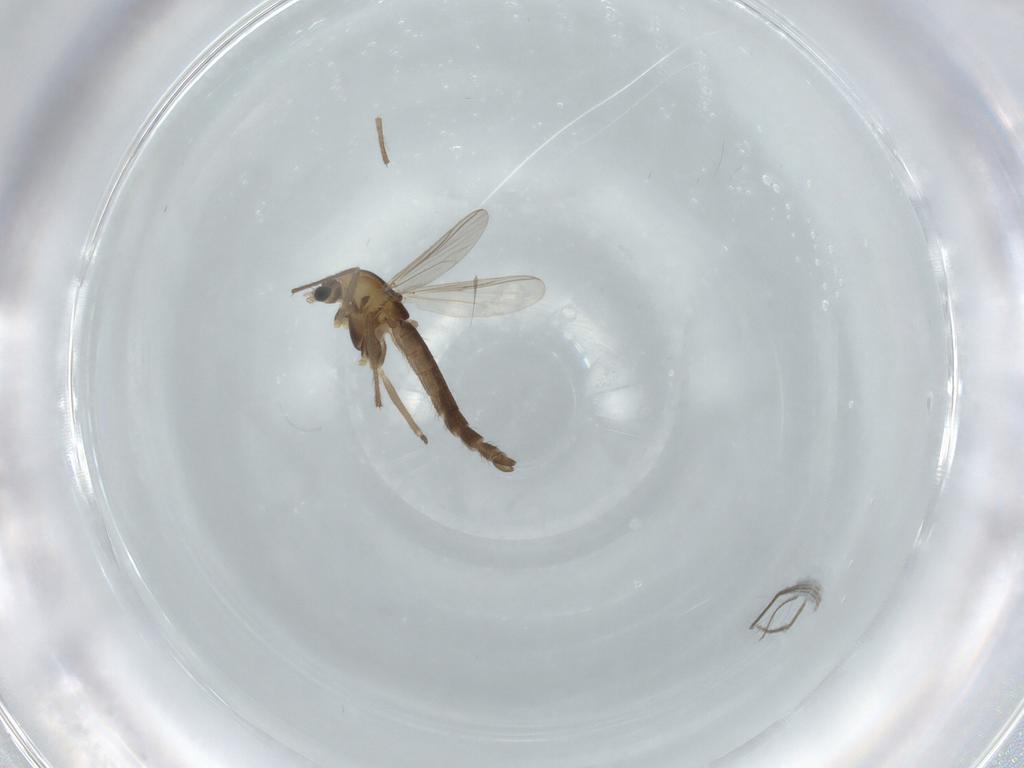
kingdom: Animalia
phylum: Arthropoda
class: Insecta
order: Diptera
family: Chironomidae
